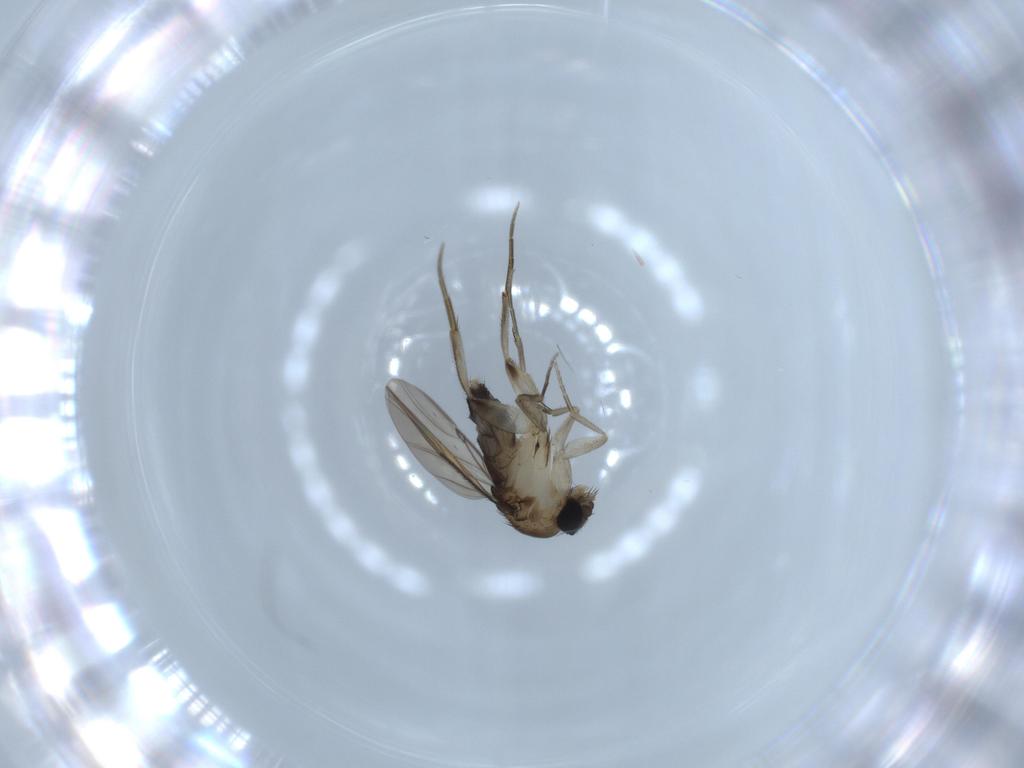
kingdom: Animalia
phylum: Arthropoda
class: Insecta
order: Diptera
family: Phoridae
